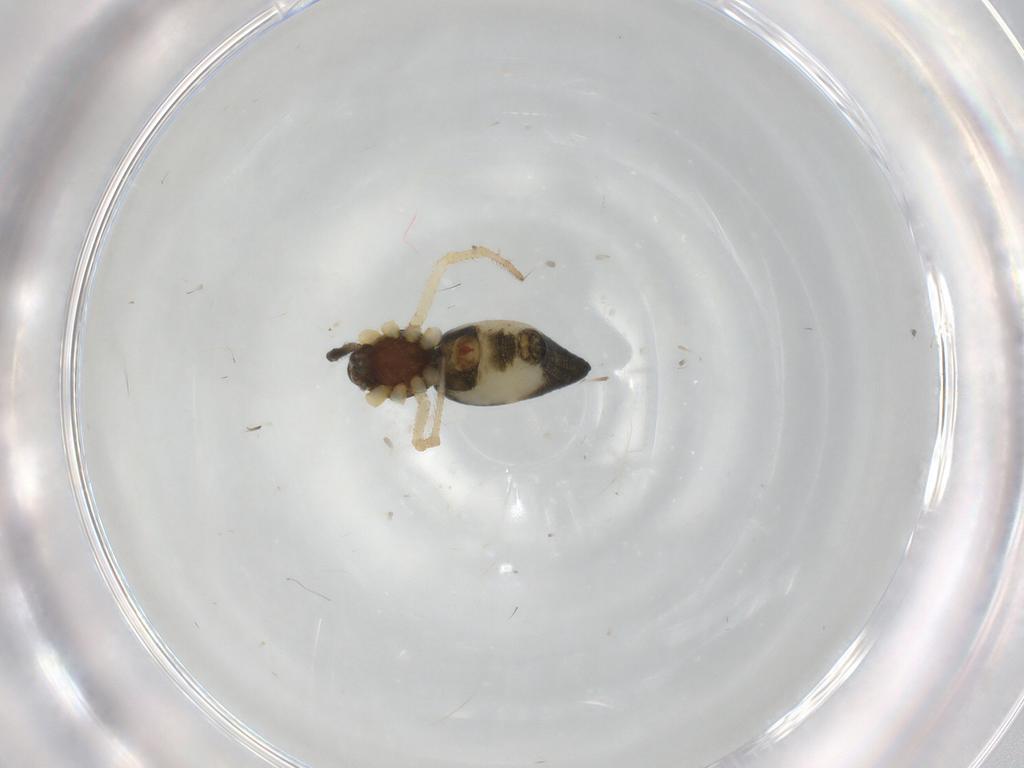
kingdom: Animalia
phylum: Arthropoda
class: Arachnida
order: Araneae
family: Theridiidae
